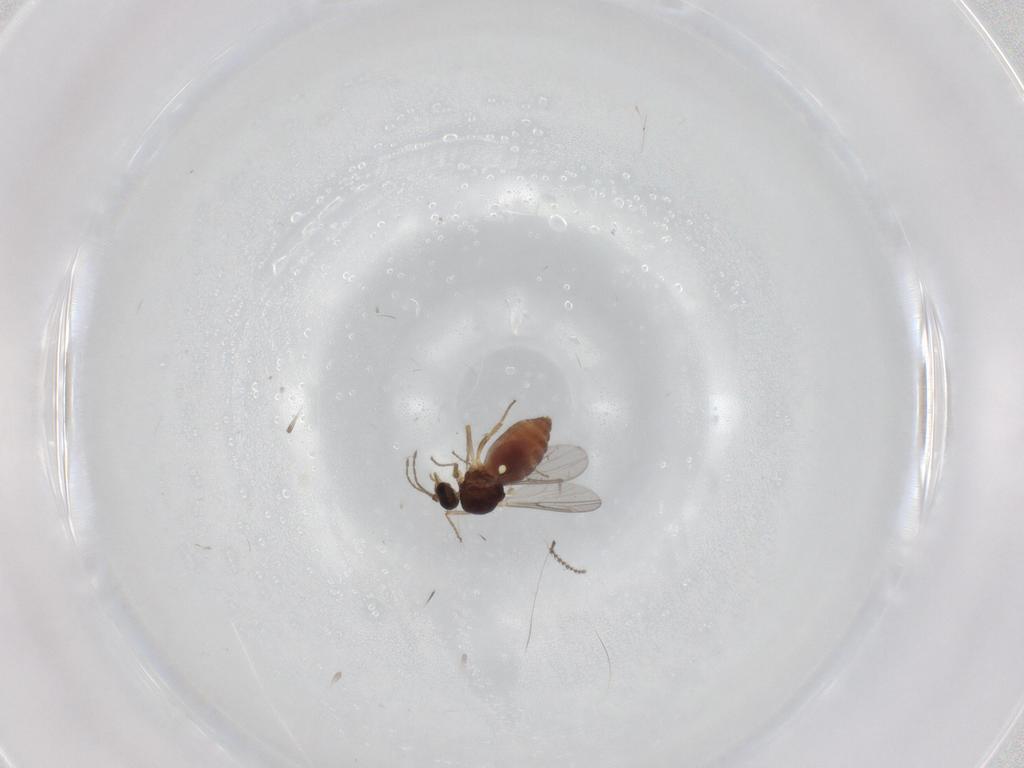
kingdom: Animalia
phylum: Arthropoda
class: Insecta
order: Diptera
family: Ceratopogonidae
